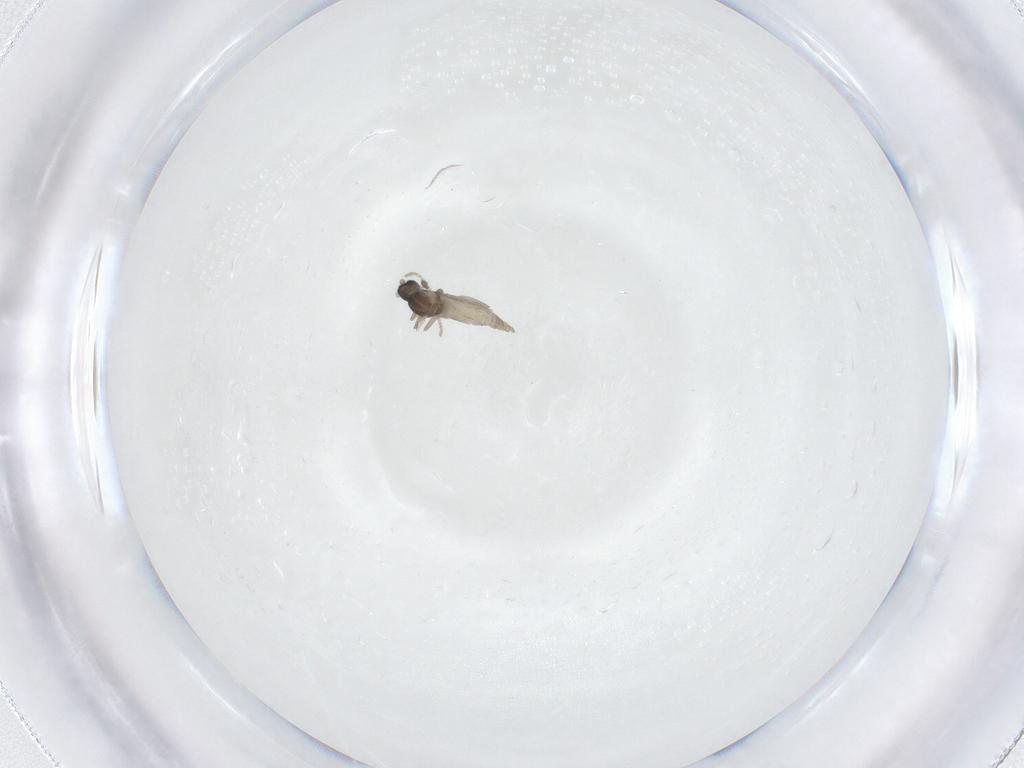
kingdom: Animalia
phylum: Arthropoda
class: Insecta
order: Diptera
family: Cecidomyiidae
